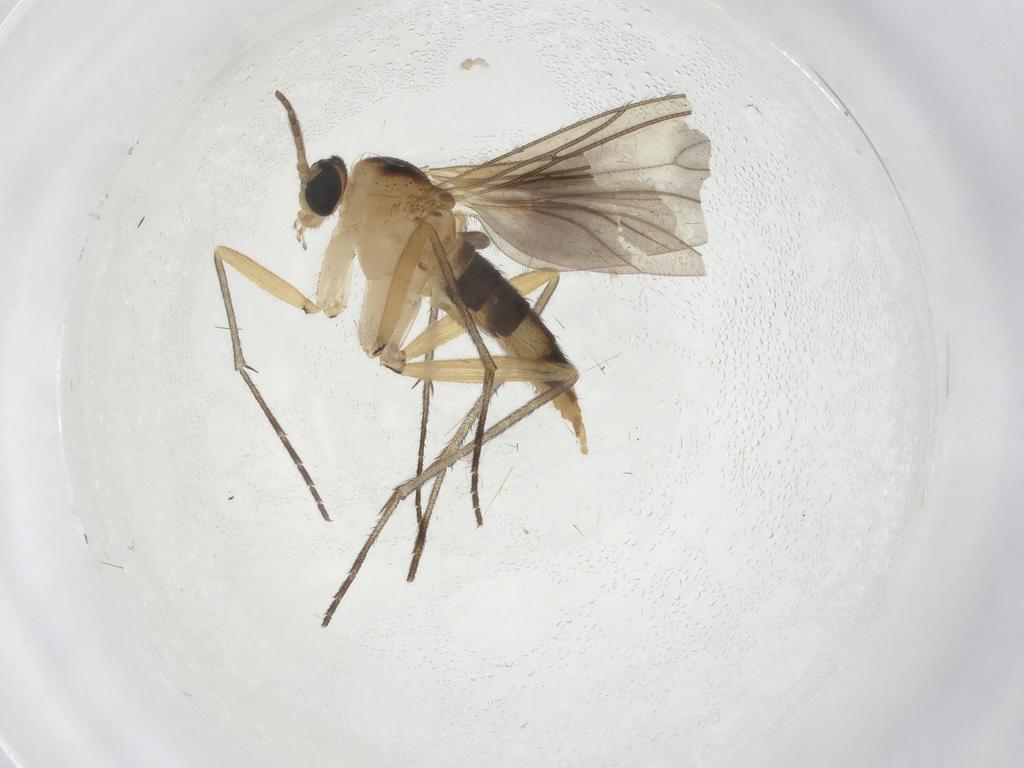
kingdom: Animalia
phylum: Arthropoda
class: Insecta
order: Diptera
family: Sciaridae
